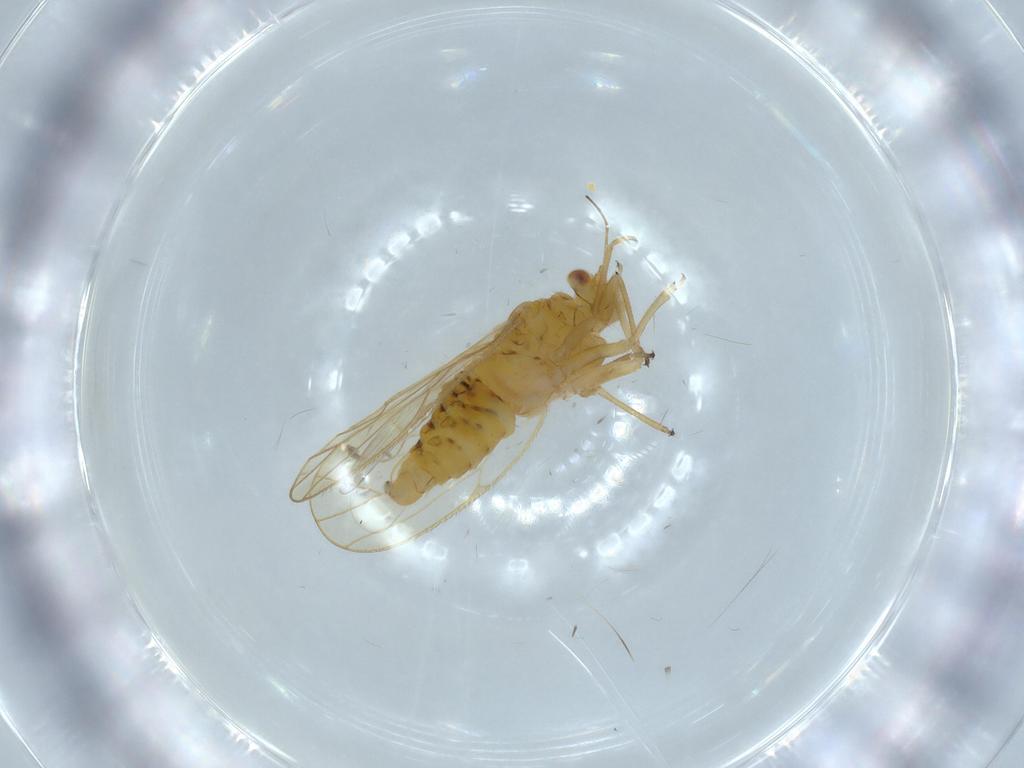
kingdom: Animalia
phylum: Arthropoda
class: Insecta
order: Hemiptera
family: Psyllidae
